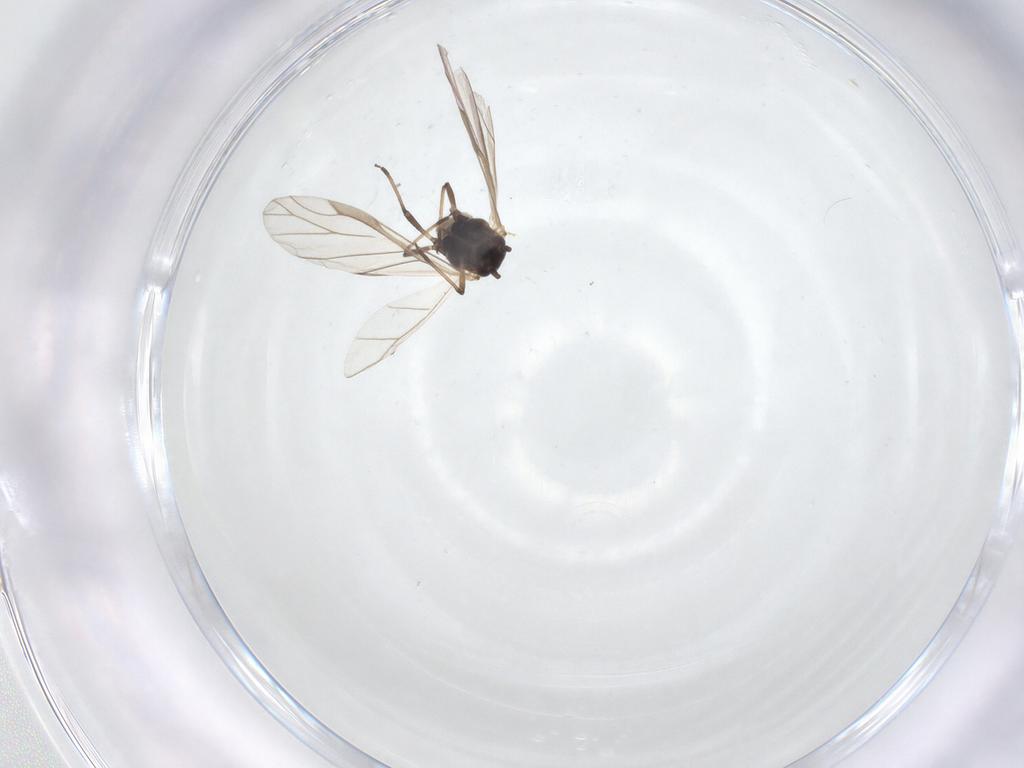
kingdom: Animalia
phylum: Arthropoda
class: Insecta
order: Hemiptera
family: Aphididae
